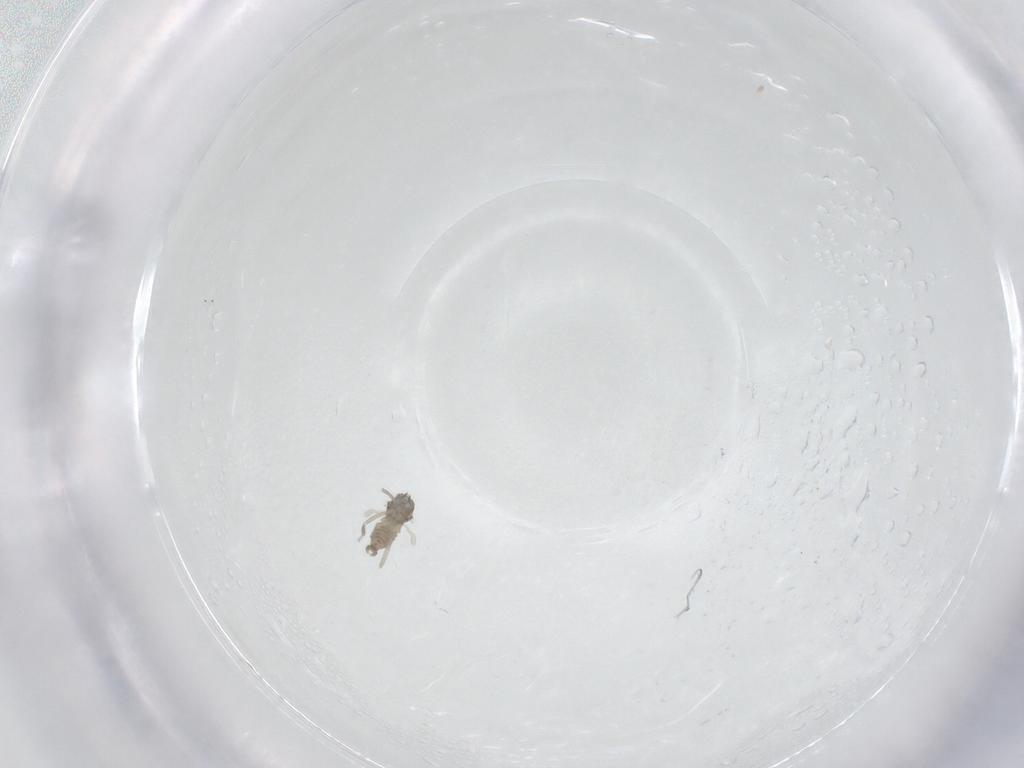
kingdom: Animalia
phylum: Arthropoda
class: Insecta
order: Diptera
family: Chironomidae
